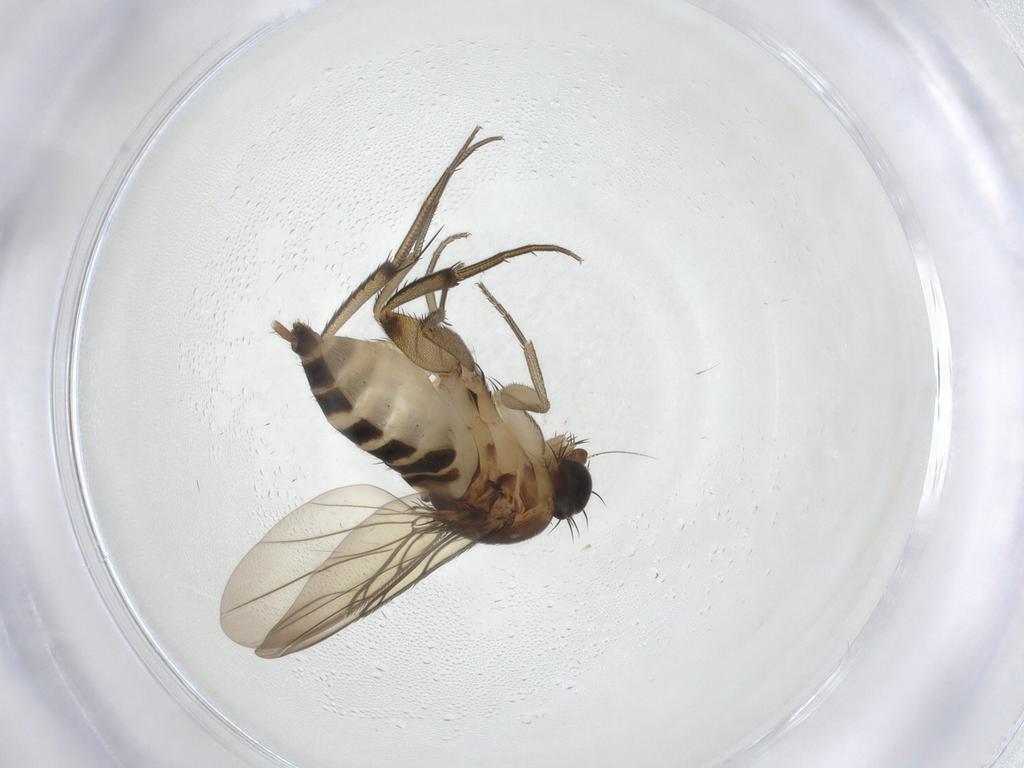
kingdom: Animalia
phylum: Arthropoda
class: Insecta
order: Diptera
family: Phoridae
